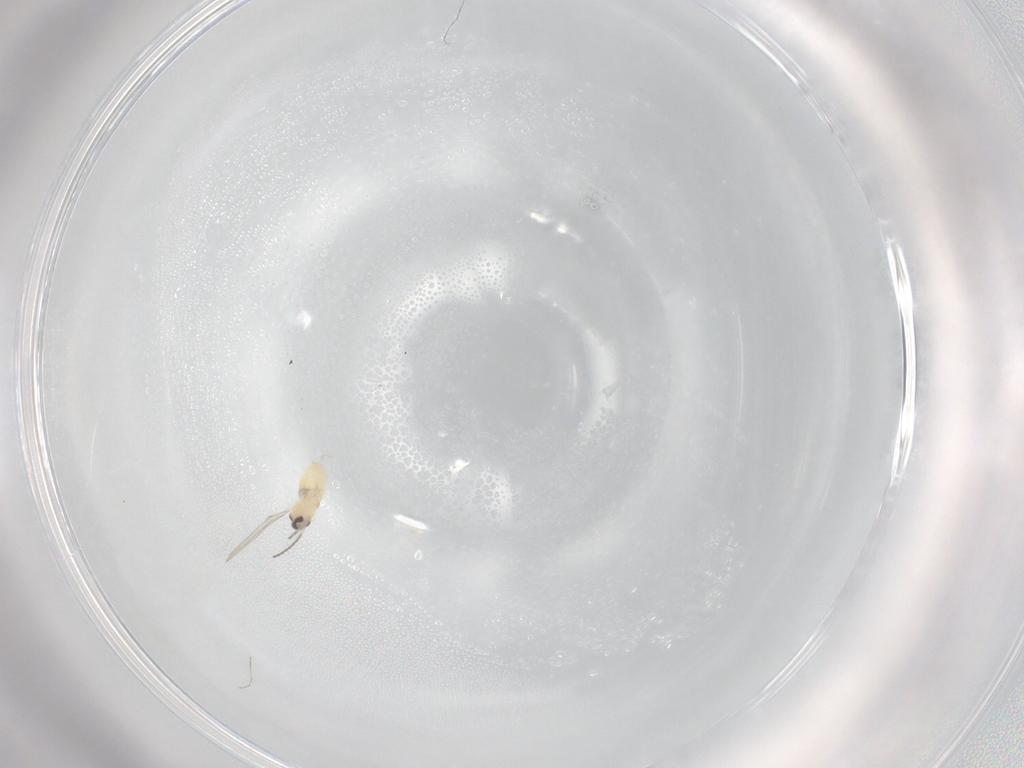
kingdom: Animalia
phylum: Arthropoda
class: Insecta
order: Diptera
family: Cecidomyiidae
